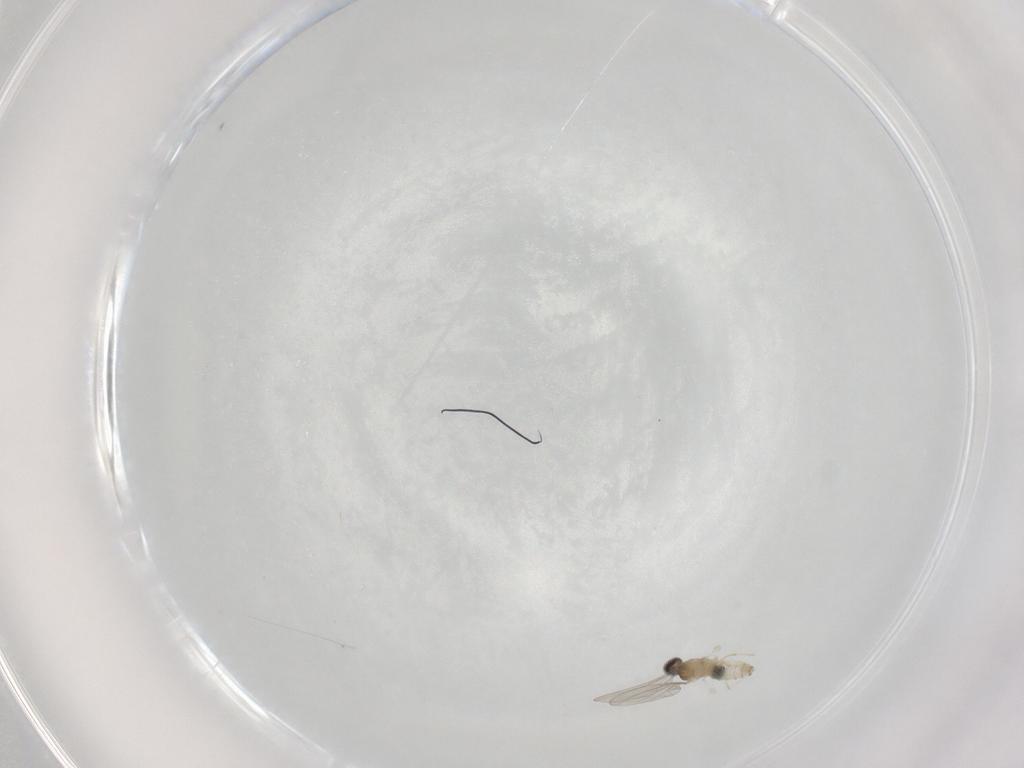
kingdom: Animalia
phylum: Arthropoda
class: Insecta
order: Diptera
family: Cecidomyiidae
